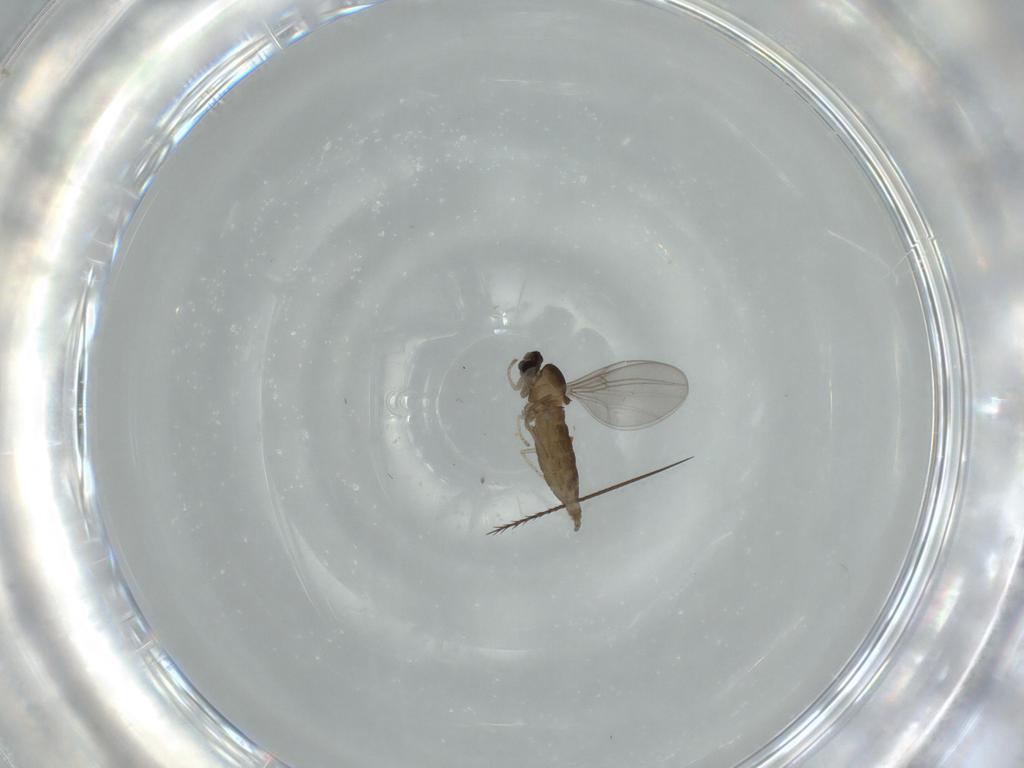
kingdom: Animalia
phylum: Arthropoda
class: Insecta
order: Diptera
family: Cecidomyiidae
